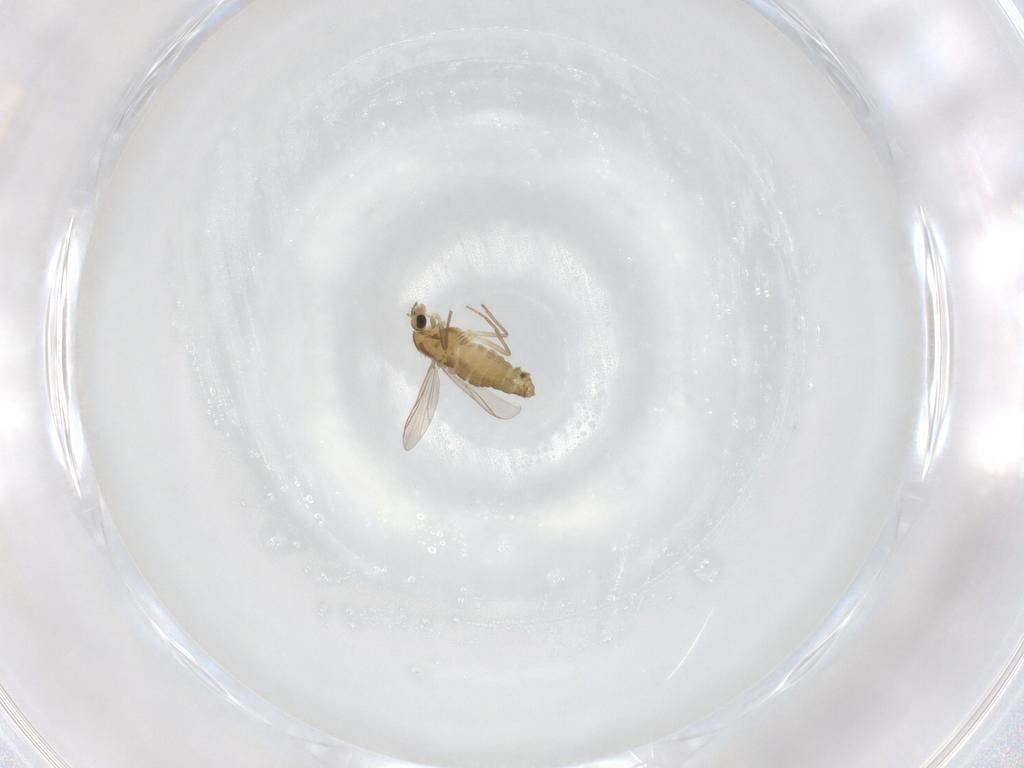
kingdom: Animalia
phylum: Arthropoda
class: Insecta
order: Diptera
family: Chironomidae
